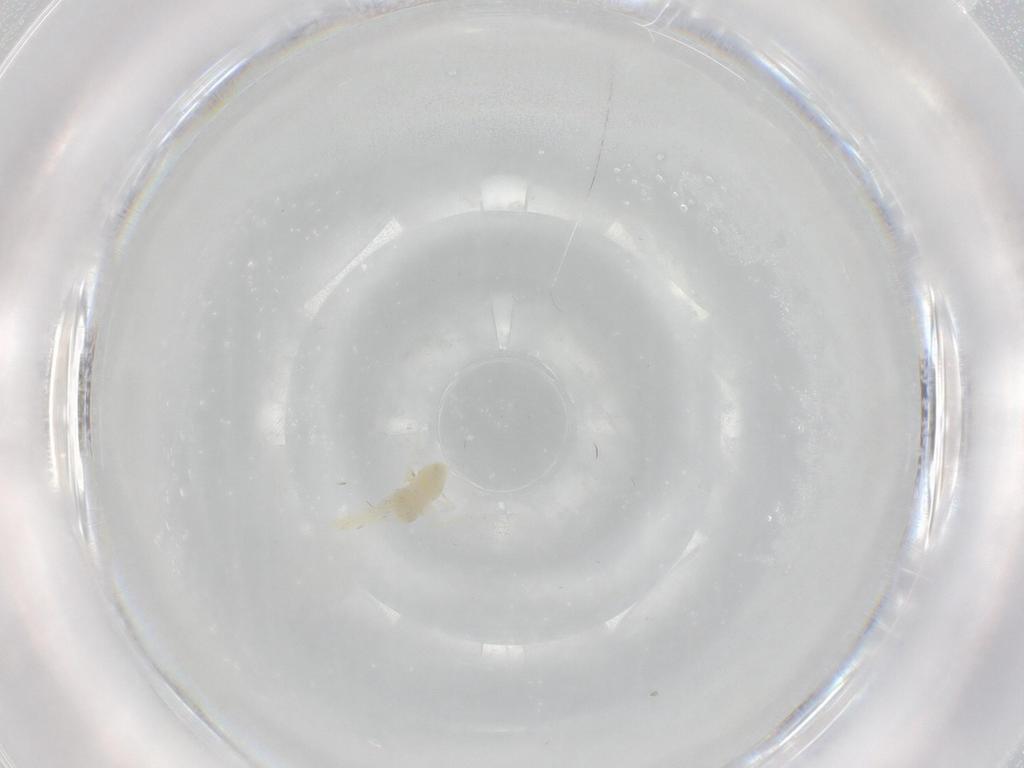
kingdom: Animalia
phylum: Arthropoda
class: Insecta
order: Hemiptera
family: Aleyrodidae
